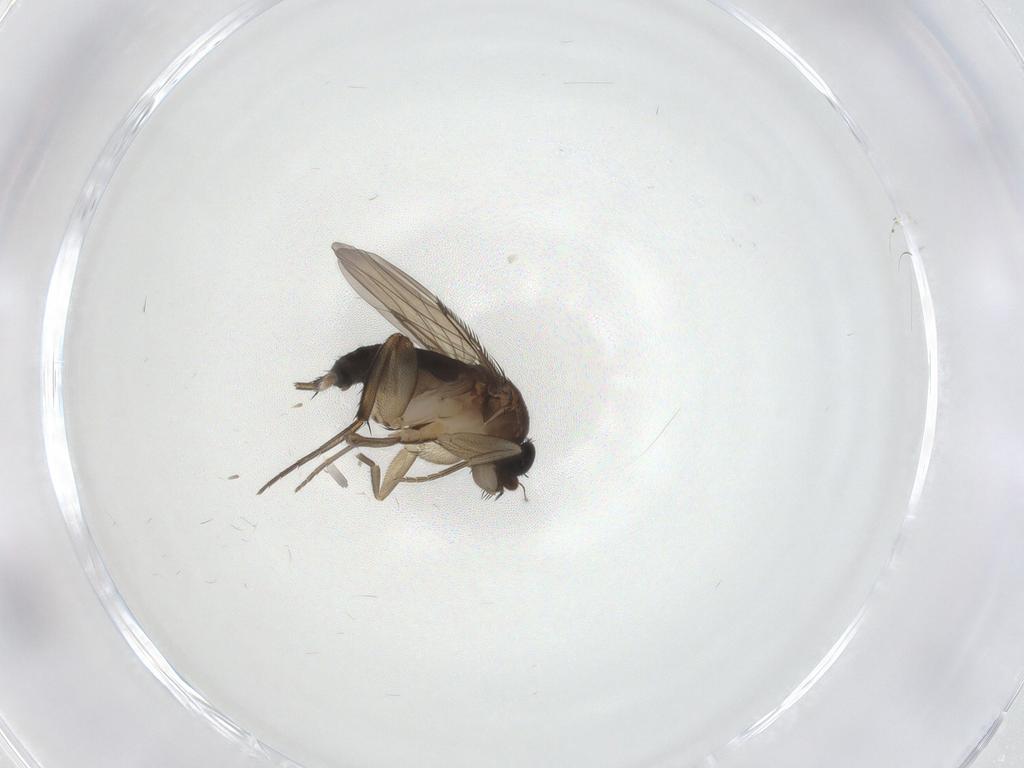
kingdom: Animalia
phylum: Arthropoda
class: Insecta
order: Diptera
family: Phoridae
